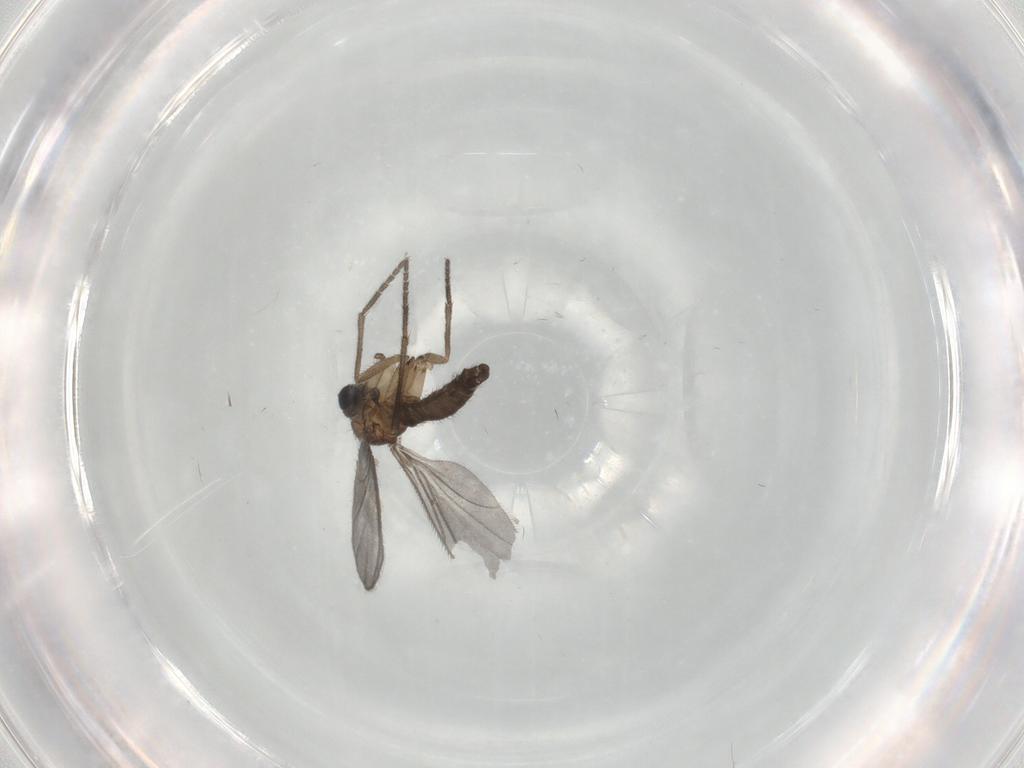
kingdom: Animalia
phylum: Arthropoda
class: Insecta
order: Diptera
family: Sciaridae
